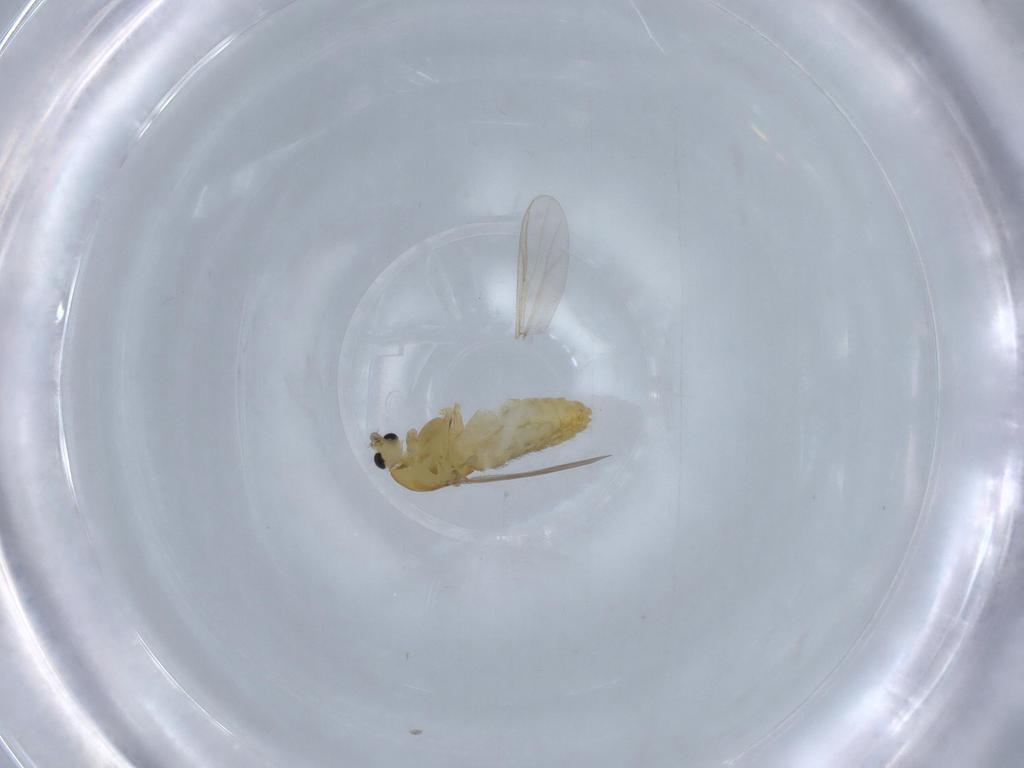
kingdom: Animalia
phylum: Arthropoda
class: Insecta
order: Diptera
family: Chironomidae
